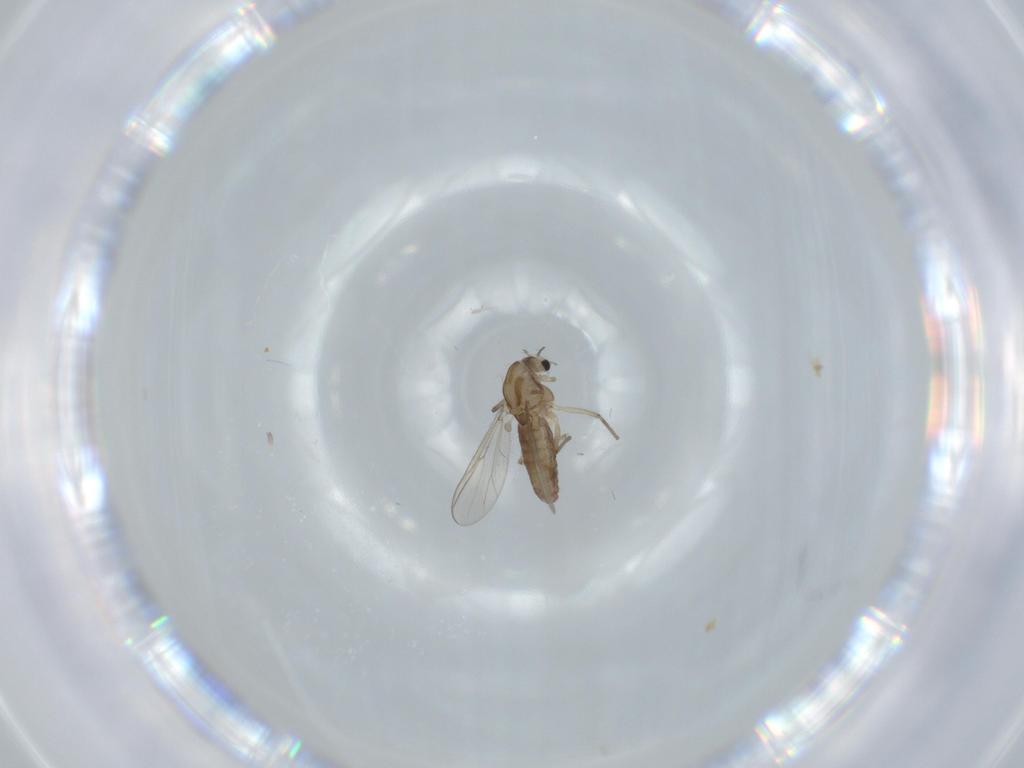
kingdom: Animalia
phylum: Arthropoda
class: Insecta
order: Diptera
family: Chironomidae
